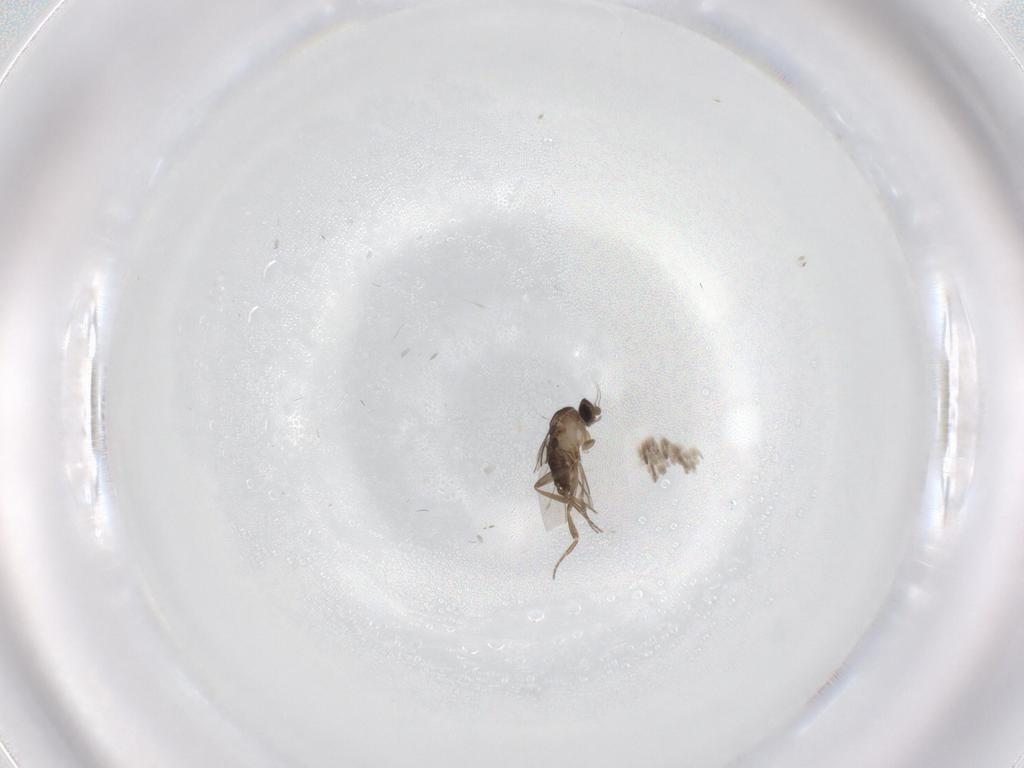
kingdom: Animalia
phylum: Arthropoda
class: Insecta
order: Diptera
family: Phoridae
